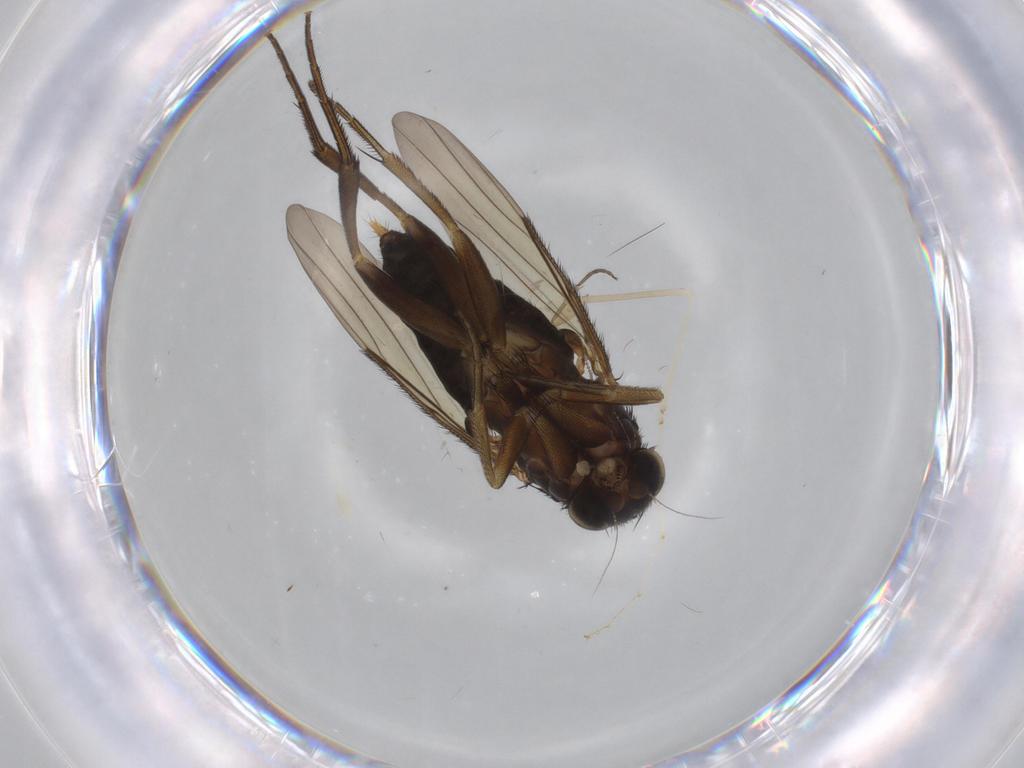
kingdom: Animalia
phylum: Arthropoda
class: Insecta
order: Diptera
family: Phoridae
